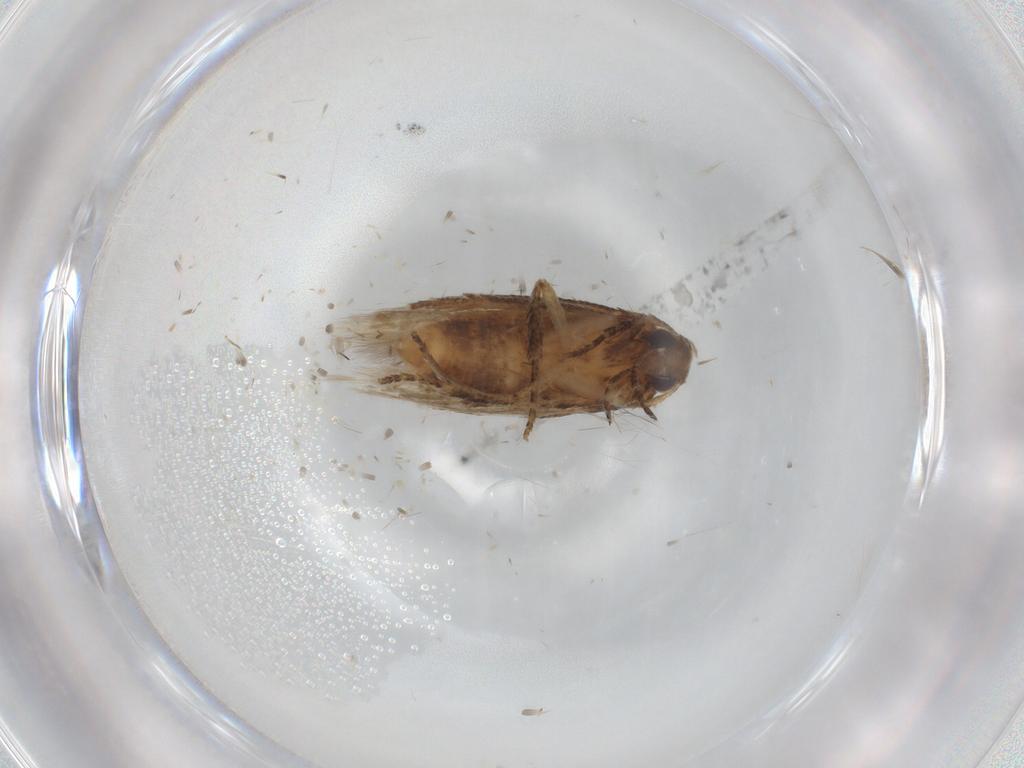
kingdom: Animalia
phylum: Arthropoda
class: Insecta
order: Lepidoptera
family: Cosmopterigidae
